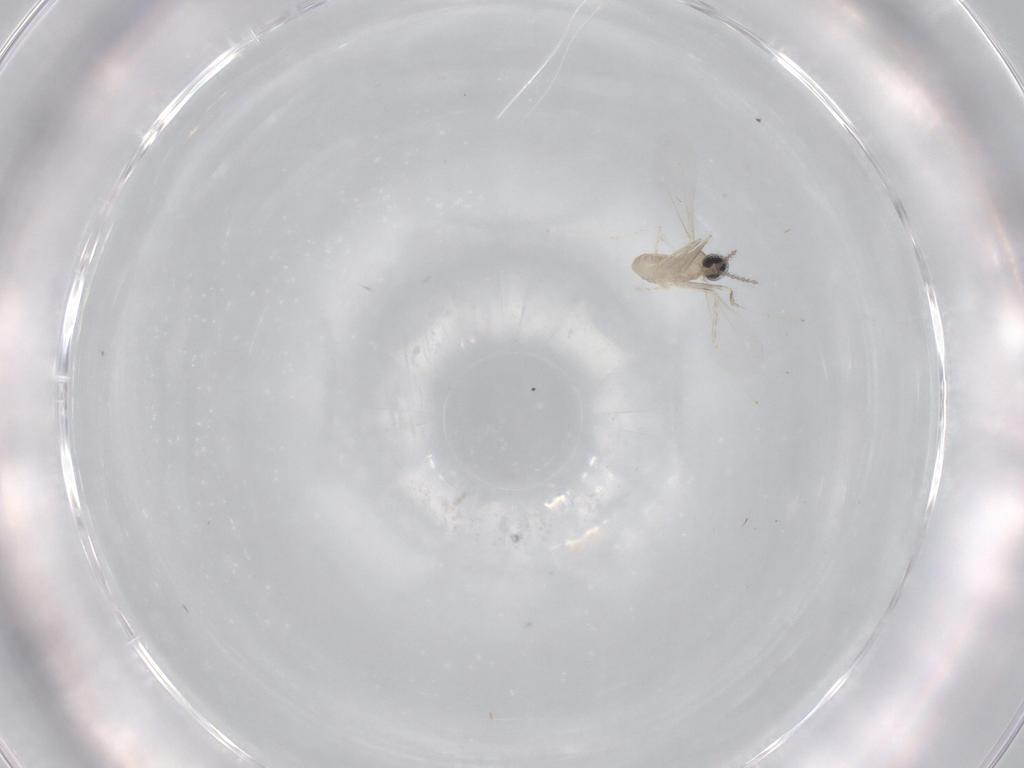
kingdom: Animalia
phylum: Arthropoda
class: Insecta
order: Diptera
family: Cecidomyiidae
